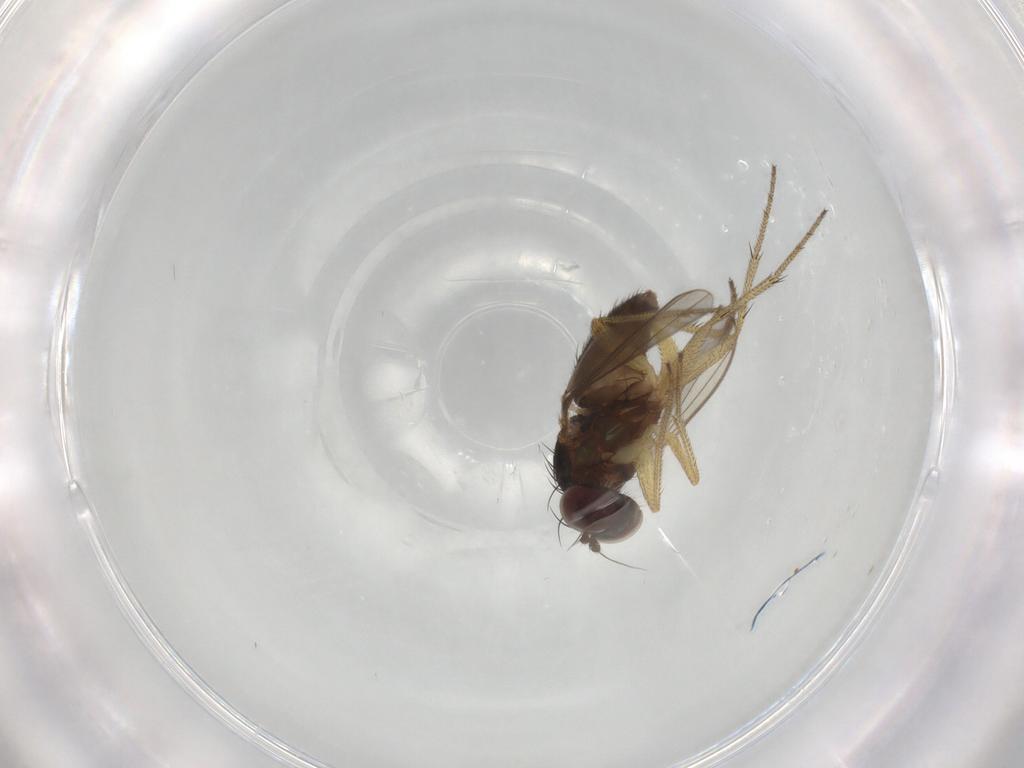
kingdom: Animalia
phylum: Arthropoda
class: Insecta
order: Diptera
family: Dolichopodidae
